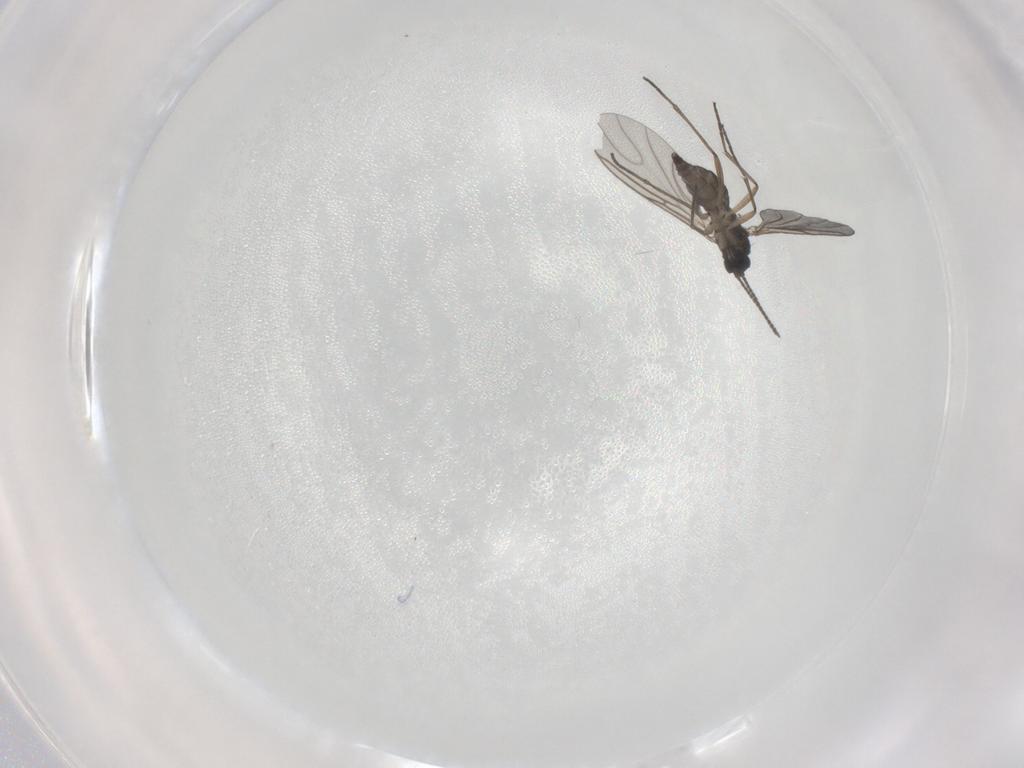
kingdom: Animalia
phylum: Arthropoda
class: Insecta
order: Diptera
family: Sciaridae
